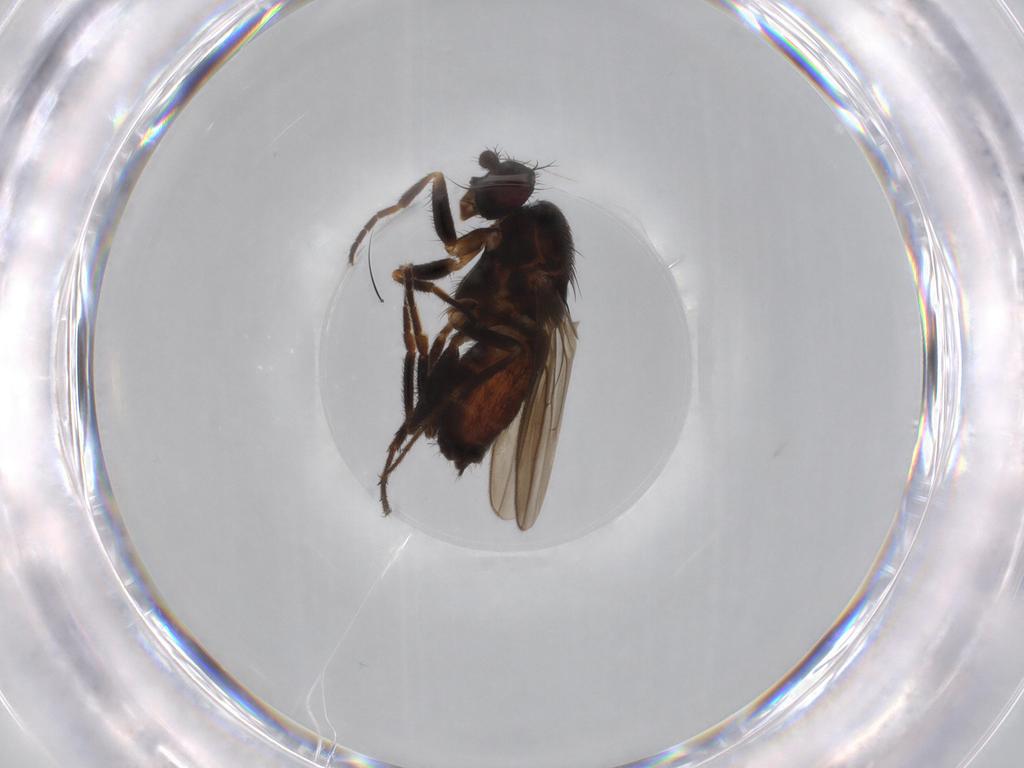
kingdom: Animalia
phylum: Arthropoda
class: Insecta
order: Diptera
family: Sphaeroceridae
